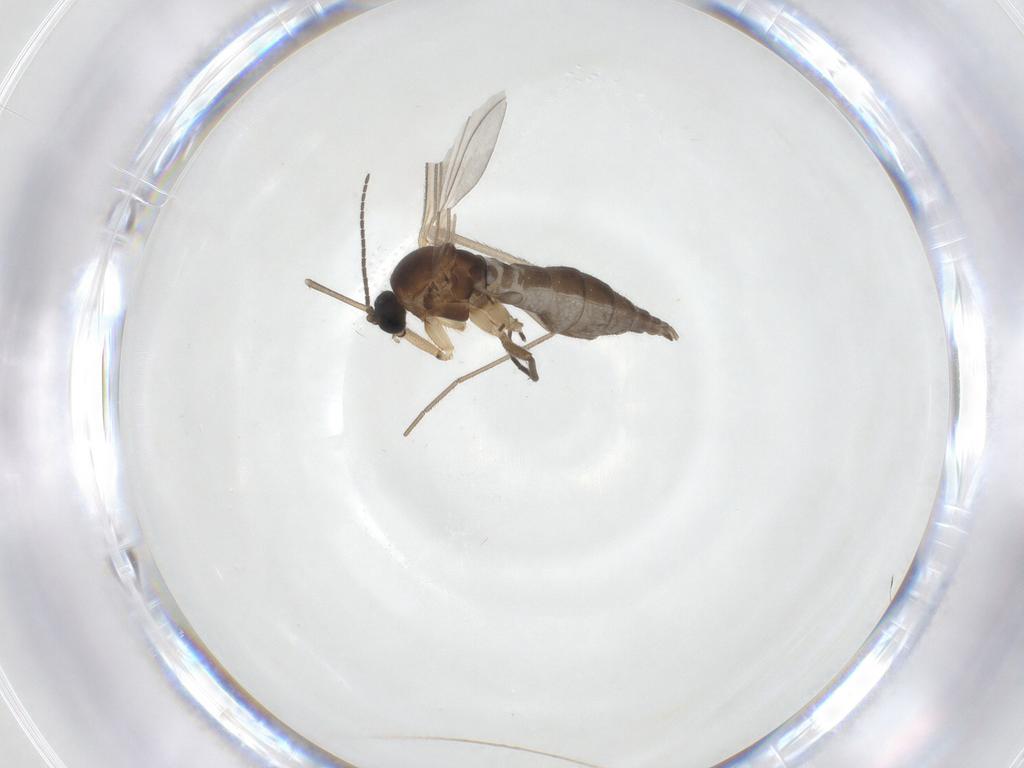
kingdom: Animalia
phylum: Arthropoda
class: Insecta
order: Diptera
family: Sciaridae
